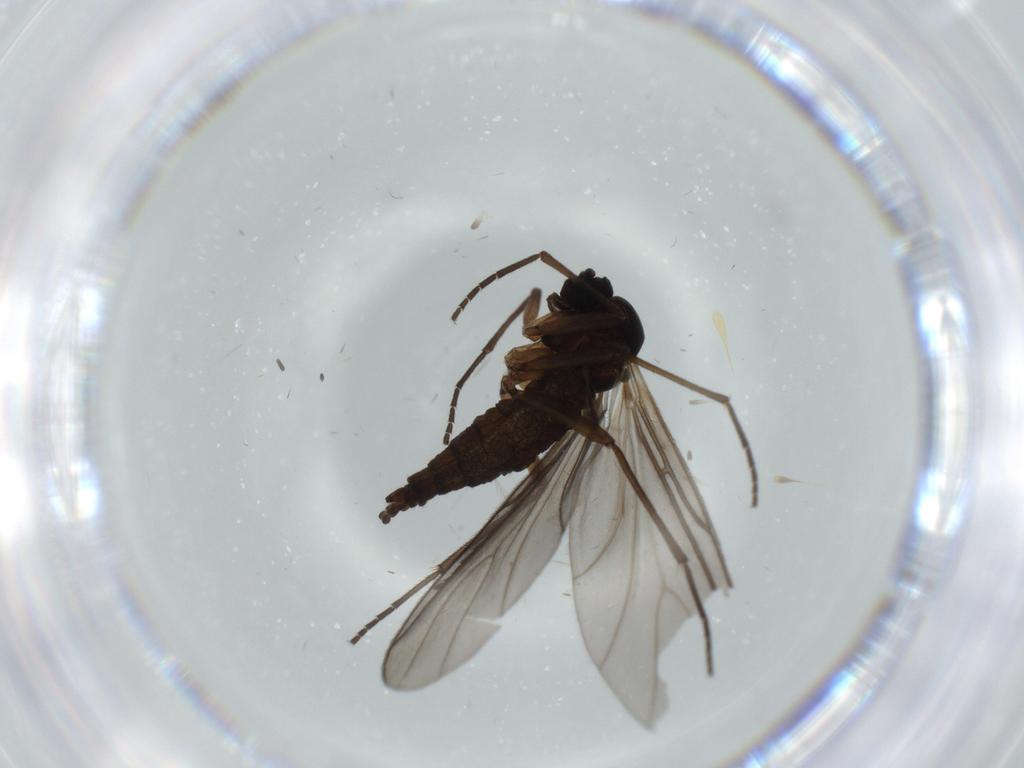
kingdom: Animalia
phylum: Arthropoda
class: Insecta
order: Diptera
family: Sciaridae
